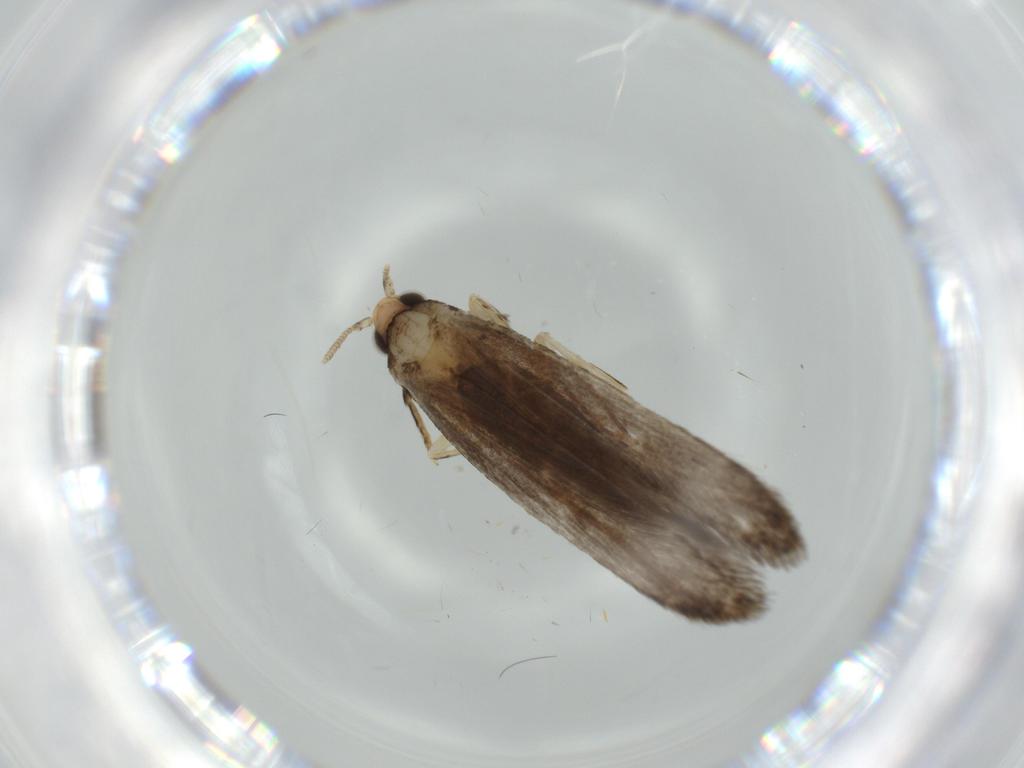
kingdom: Animalia
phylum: Arthropoda
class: Insecta
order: Lepidoptera
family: Tineidae
